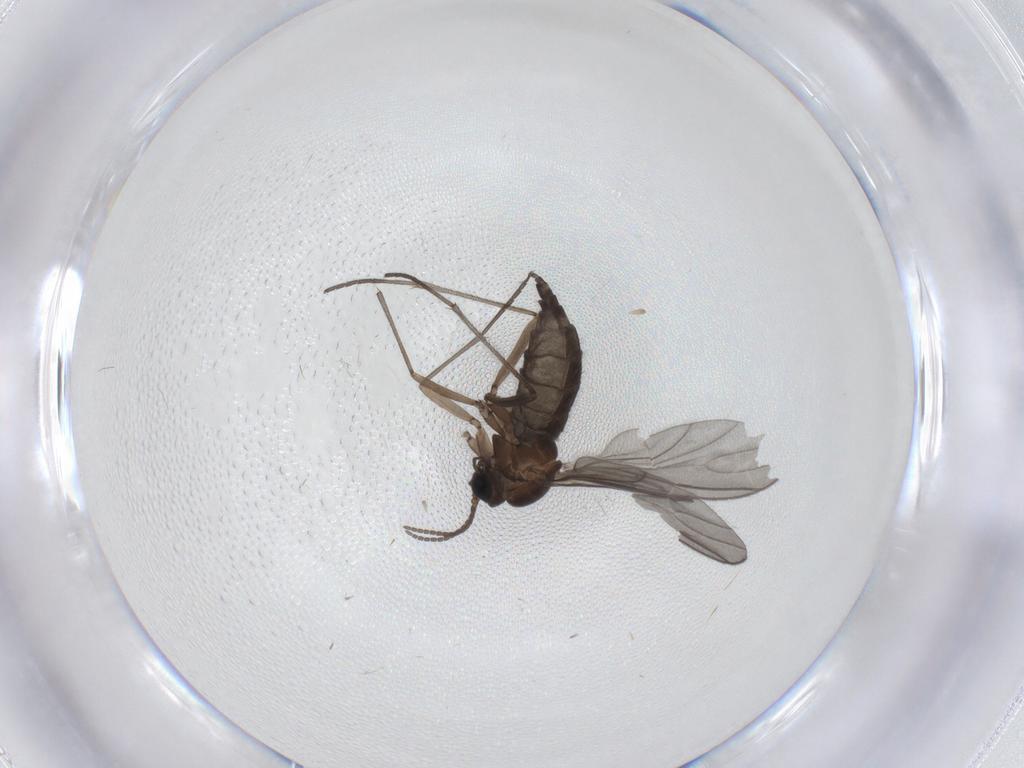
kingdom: Animalia
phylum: Arthropoda
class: Insecta
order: Diptera
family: Sciaridae
